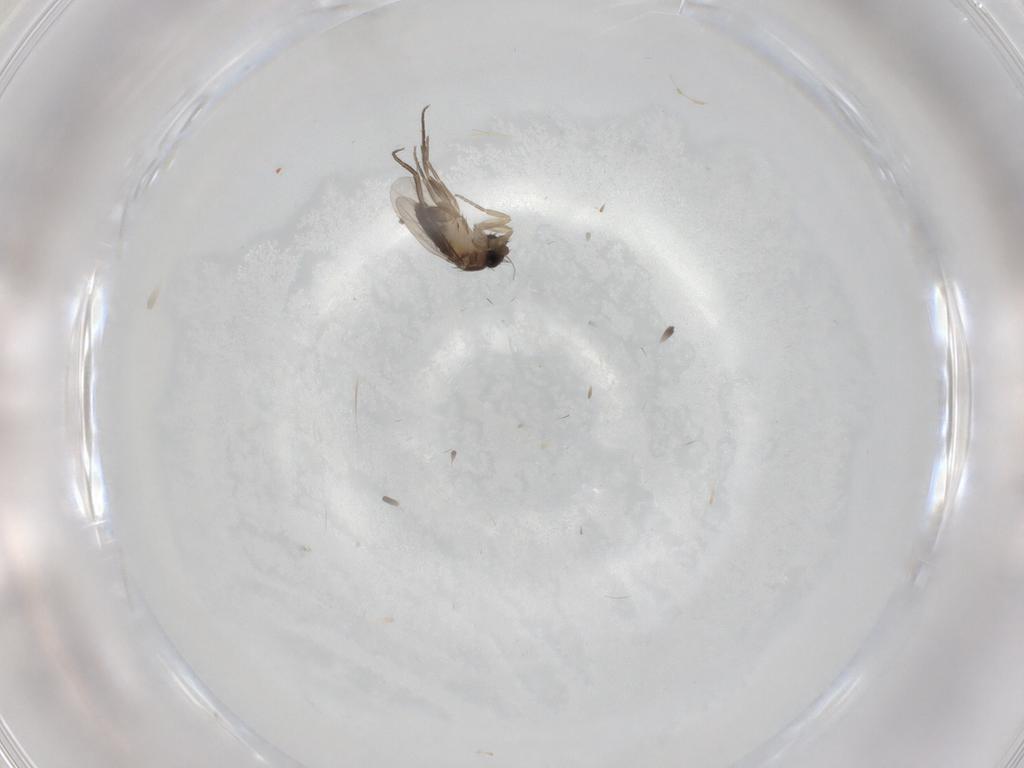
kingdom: Animalia
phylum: Arthropoda
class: Insecta
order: Diptera
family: Phoridae
